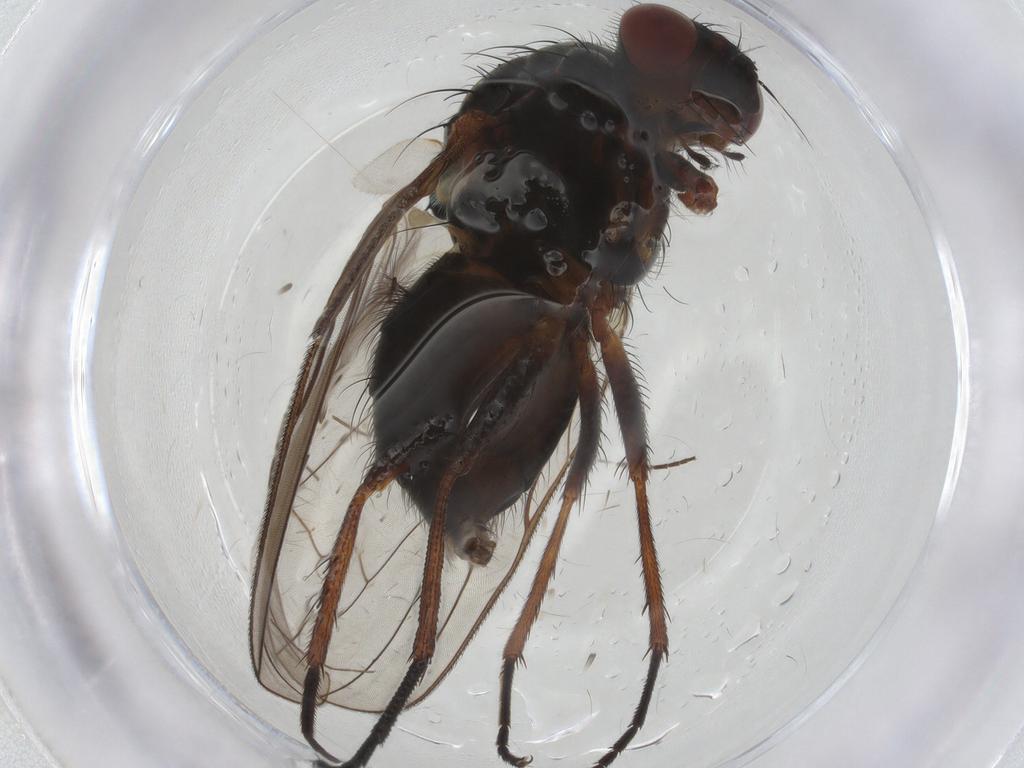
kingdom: Animalia
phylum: Arthropoda
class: Insecta
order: Diptera
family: Anthomyiidae
